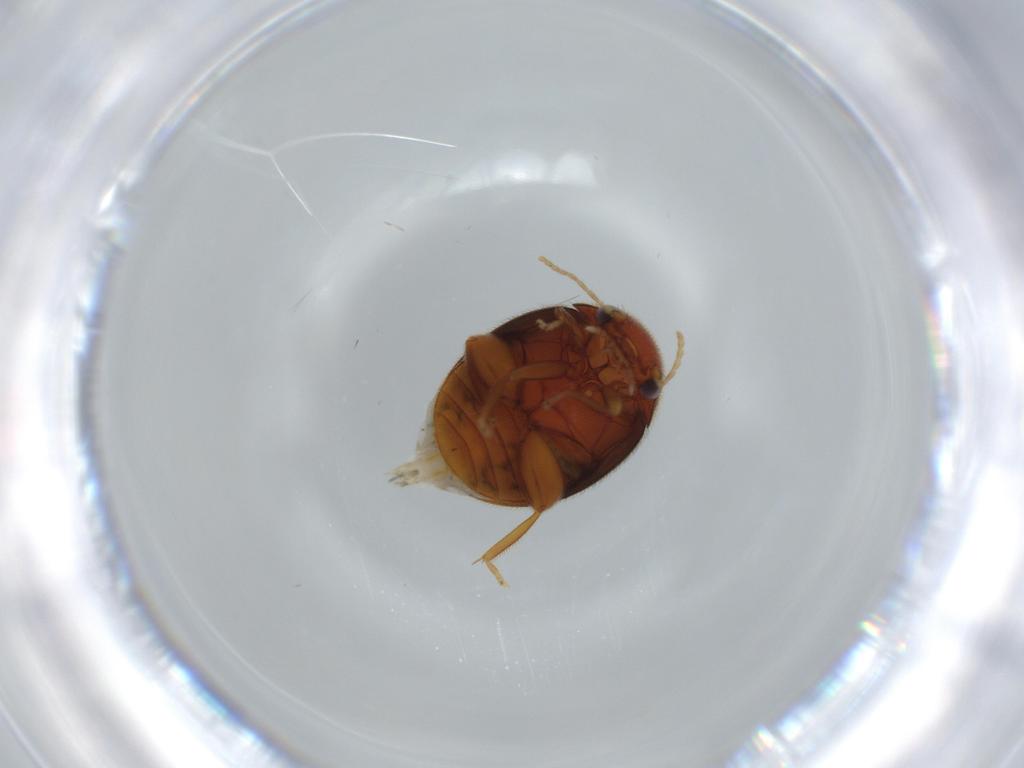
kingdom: Animalia
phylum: Arthropoda
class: Insecta
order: Coleoptera
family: Scirtidae
